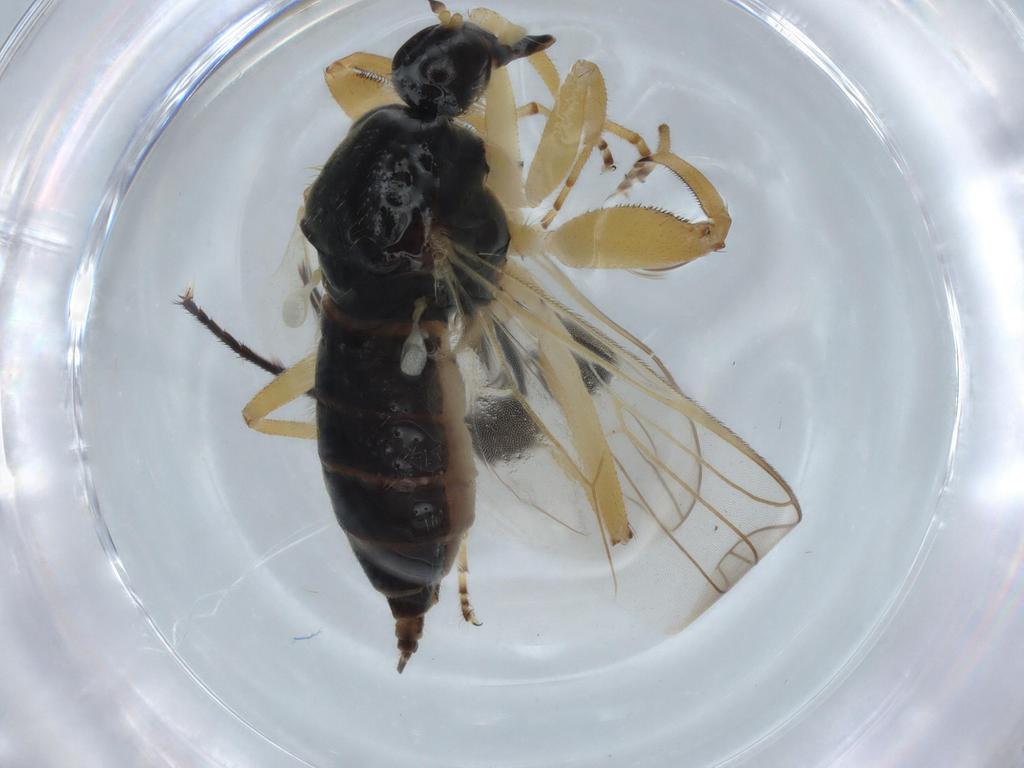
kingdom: Animalia
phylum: Arthropoda
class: Insecta
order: Diptera
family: Hybotidae
